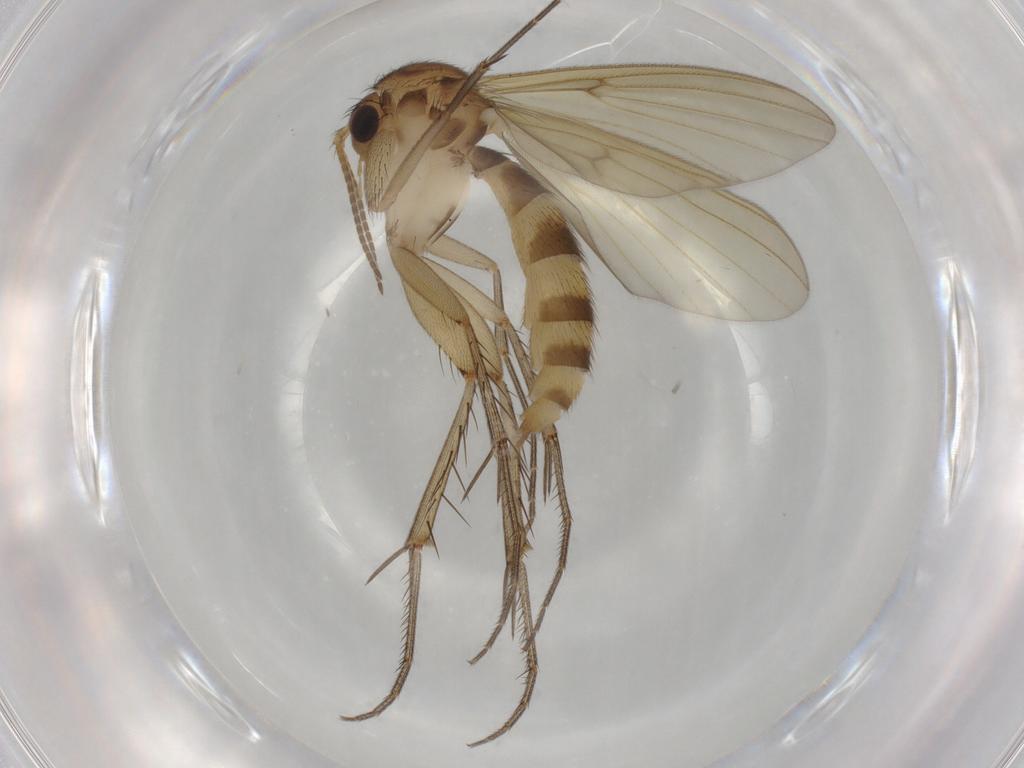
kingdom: Animalia
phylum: Arthropoda
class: Insecta
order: Diptera
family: Mycetophilidae
